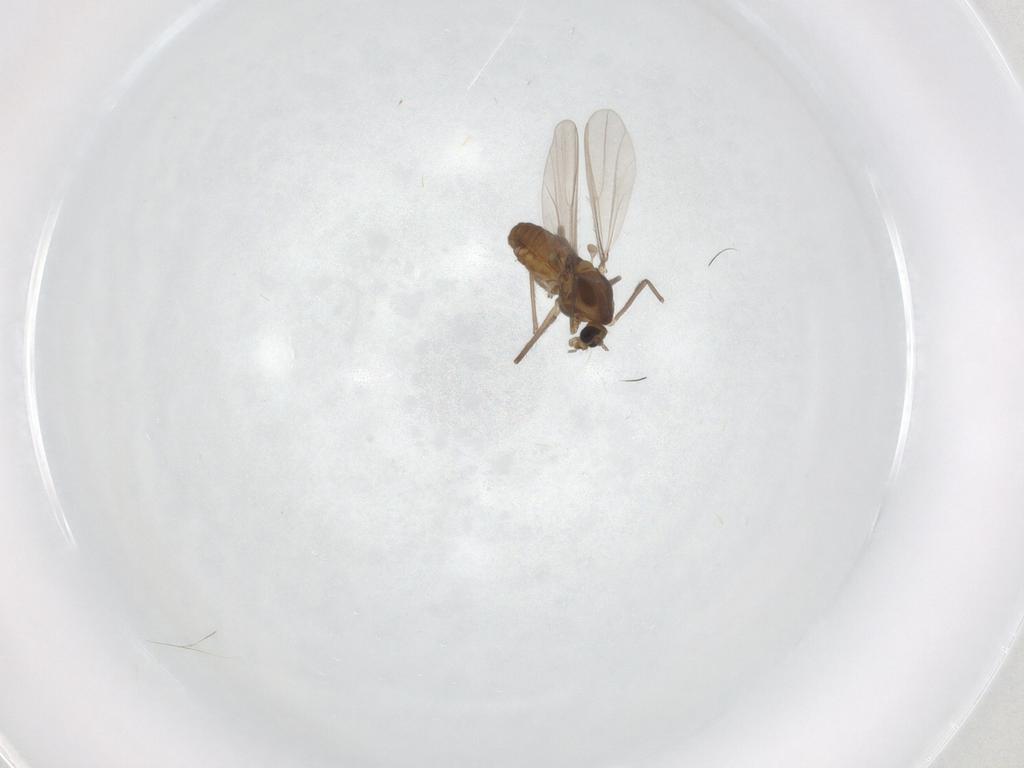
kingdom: Animalia
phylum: Arthropoda
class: Insecta
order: Diptera
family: Chironomidae
